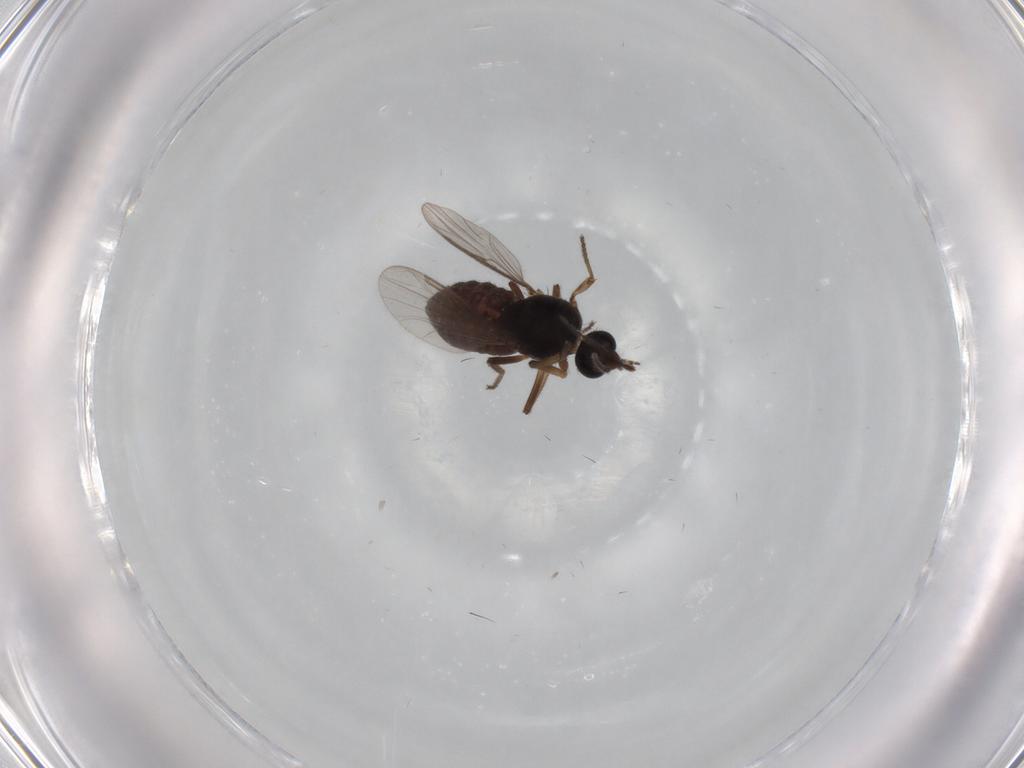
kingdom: Animalia
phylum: Arthropoda
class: Insecta
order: Diptera
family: Ceratopogonidae
